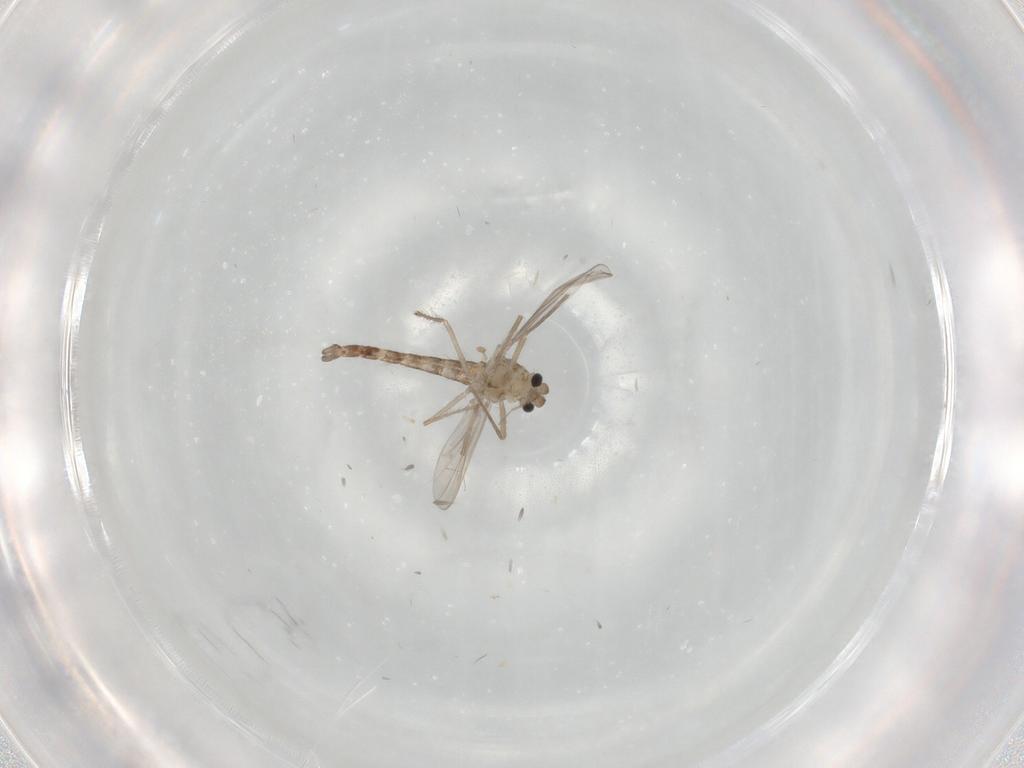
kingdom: Animalia
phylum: Arthropoda
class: Insecta
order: Diptera
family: Chironomidae
